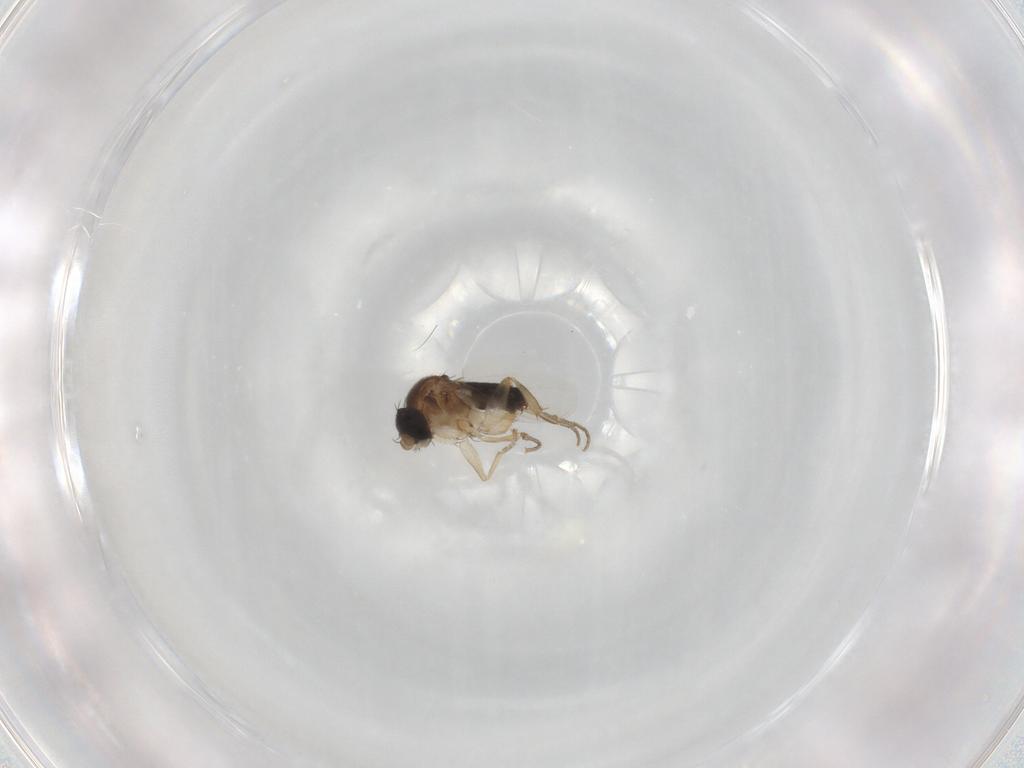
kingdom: Animalia
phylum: Arthropoda
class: Insecta
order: Diptera
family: Phoridae
